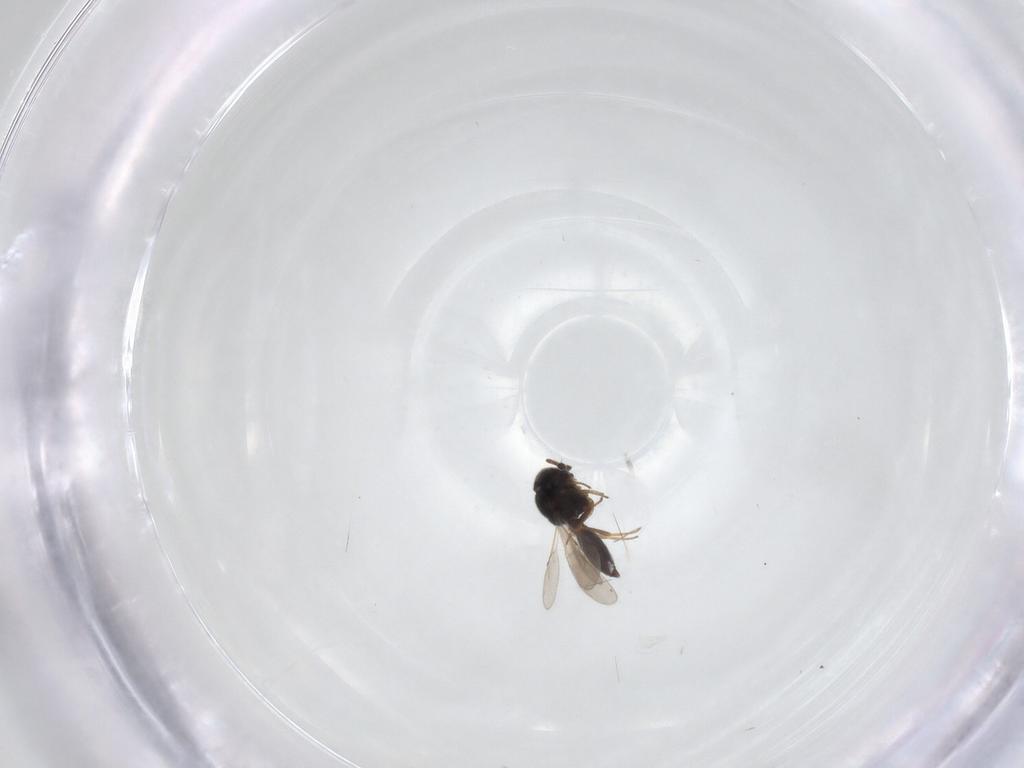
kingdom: Animalia
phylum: Arthropoda
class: Insecta
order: Hymenoptera
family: Scelionidae
